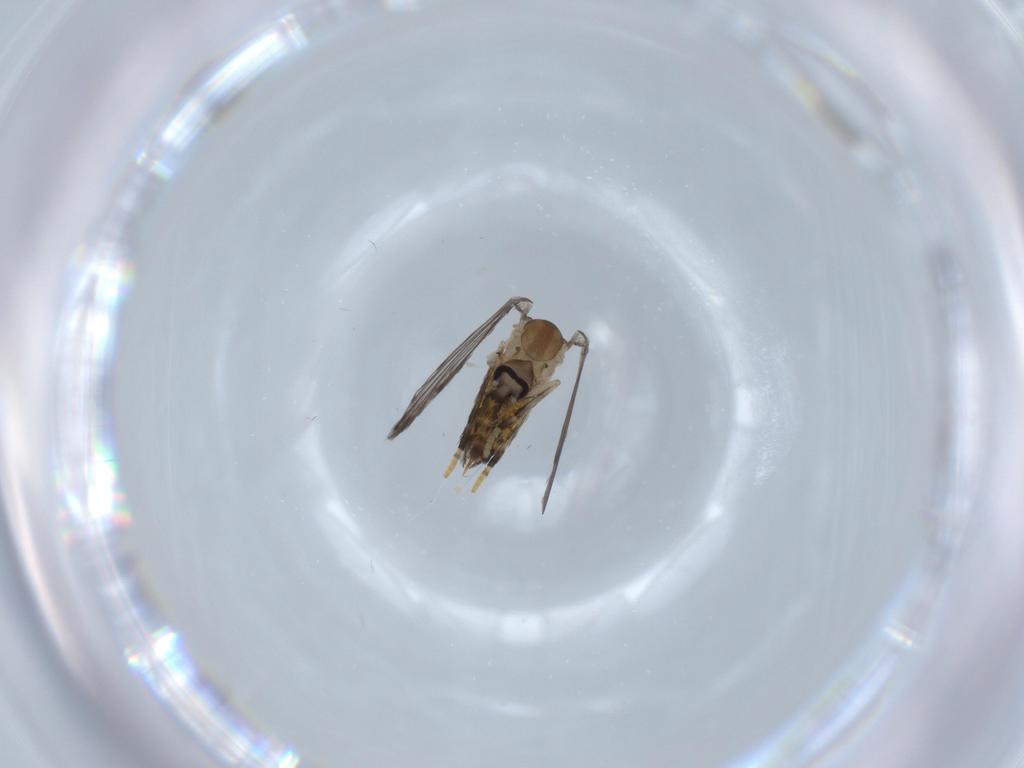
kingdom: Animalia
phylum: Arthropoda
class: Insecta
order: Diptera
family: Psychodidae
